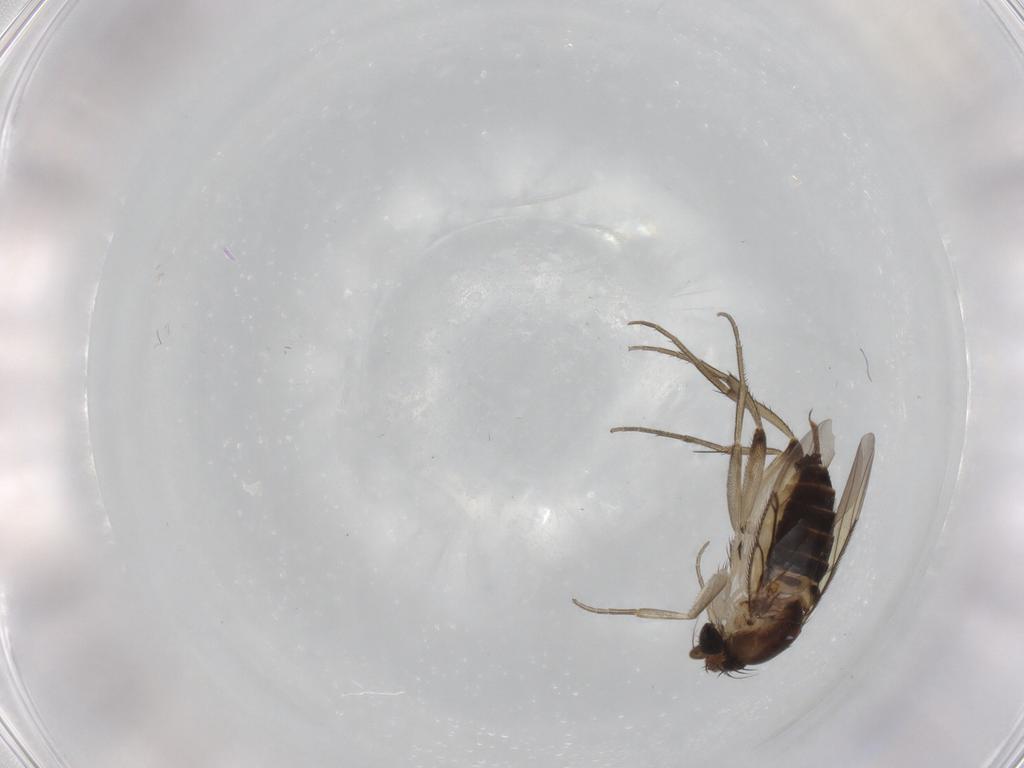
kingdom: Animalia
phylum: Arthropoda
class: Insecta
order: Diptera
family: Phoridae
